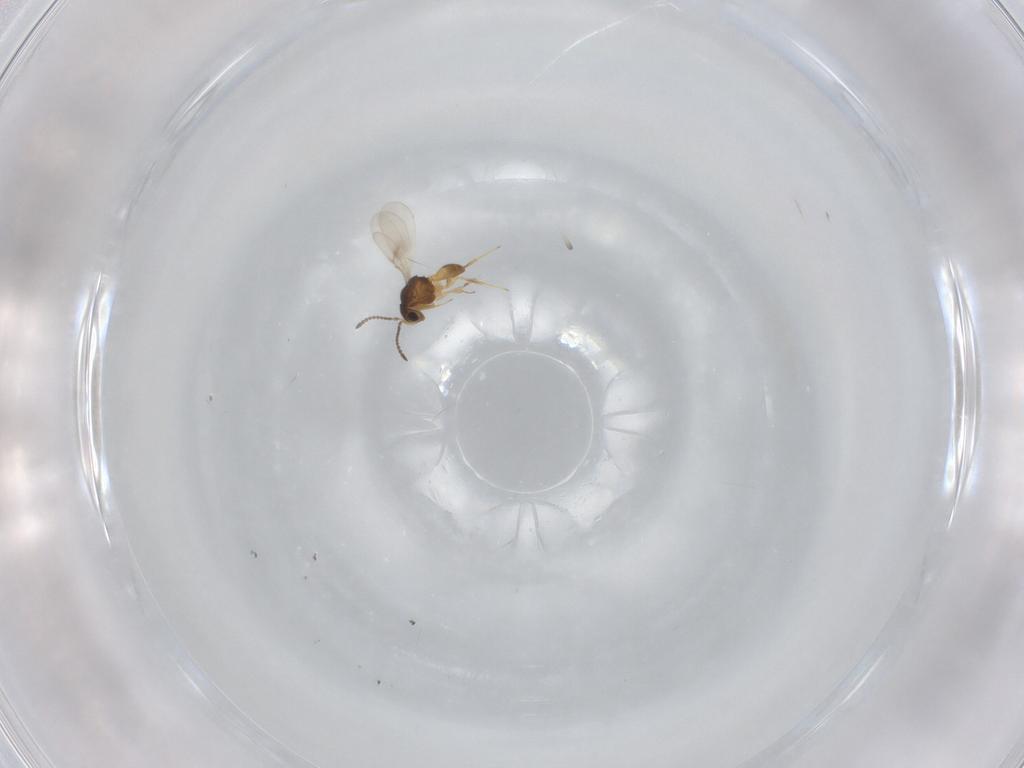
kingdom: Animalia
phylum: Arthropoda
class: Insecta
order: Hymenoptera
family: Scelionidae
